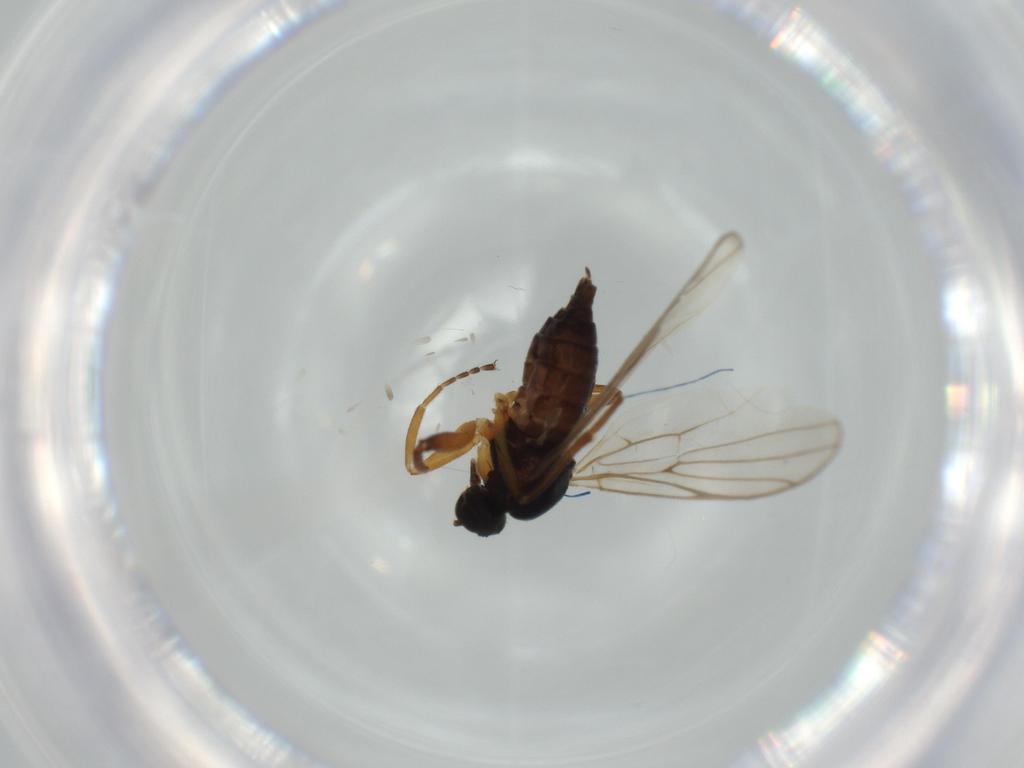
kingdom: Animalia
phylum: Arthropoda
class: Insecta
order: Diptera
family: Hybotidae
